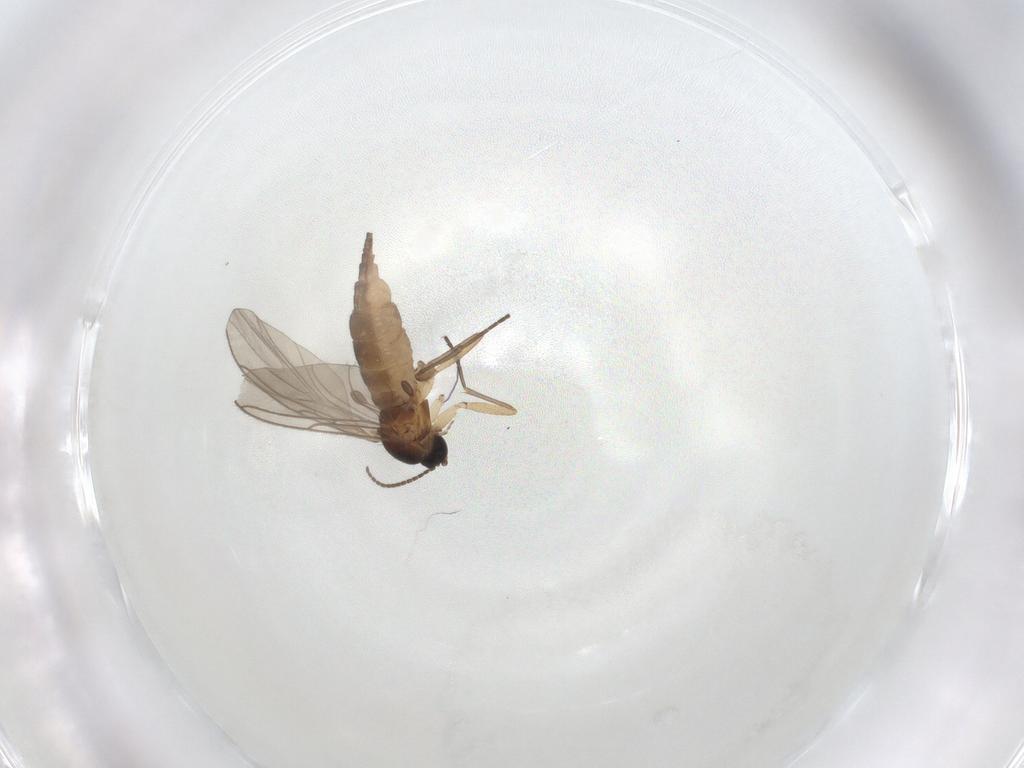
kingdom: Animalia
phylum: Arthropoda
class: Insecta
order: Diptera
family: Sciaridae
